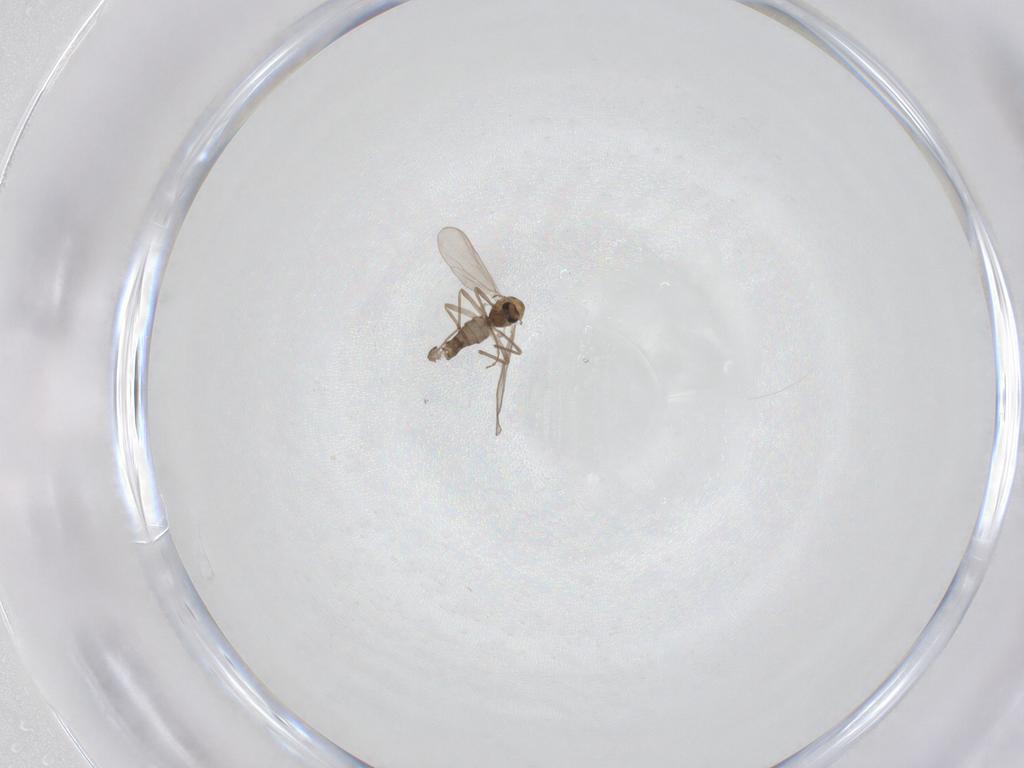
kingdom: Animalia
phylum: Arthropoda
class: Insecta
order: Diptera
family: Chironomidae
